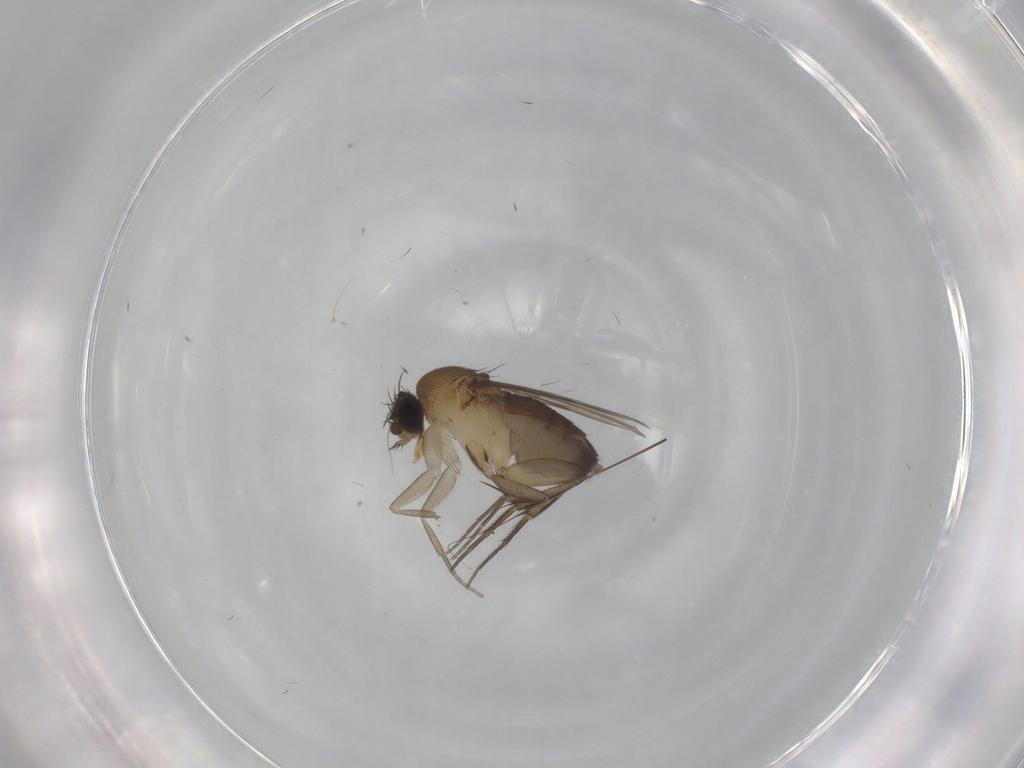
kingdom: Animalia
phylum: Arthropoda
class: Insecta
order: Diptera
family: Phoridae
